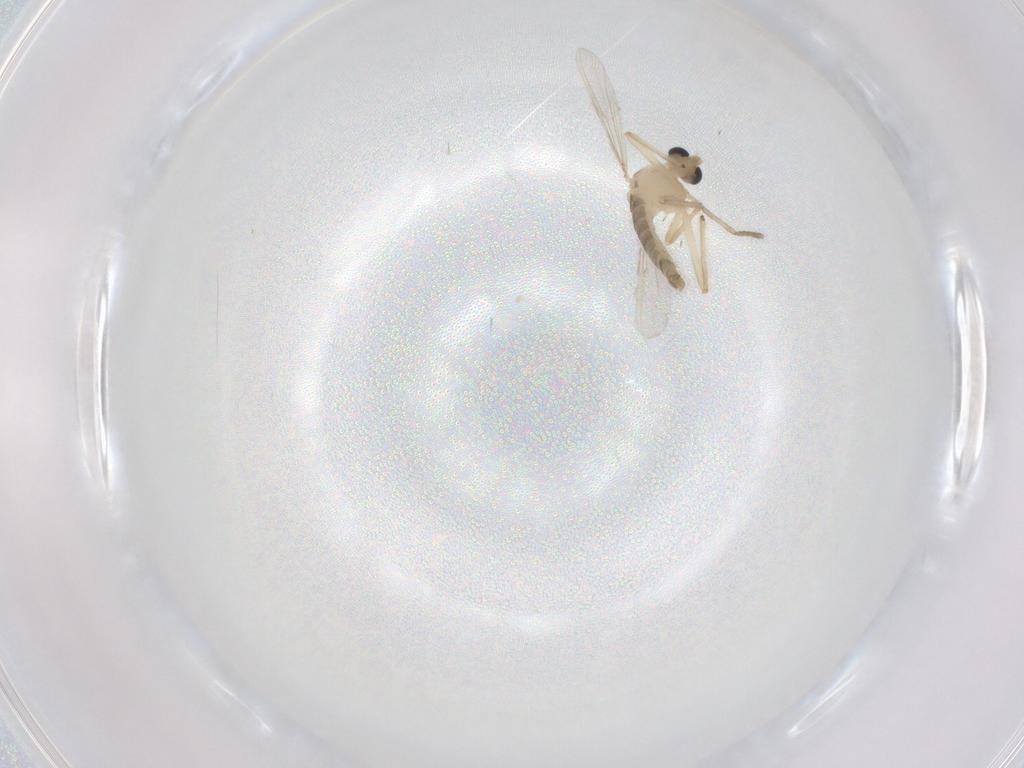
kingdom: Animalia
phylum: Arthropoda
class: Insecta
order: Diptera
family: Chironomidae
